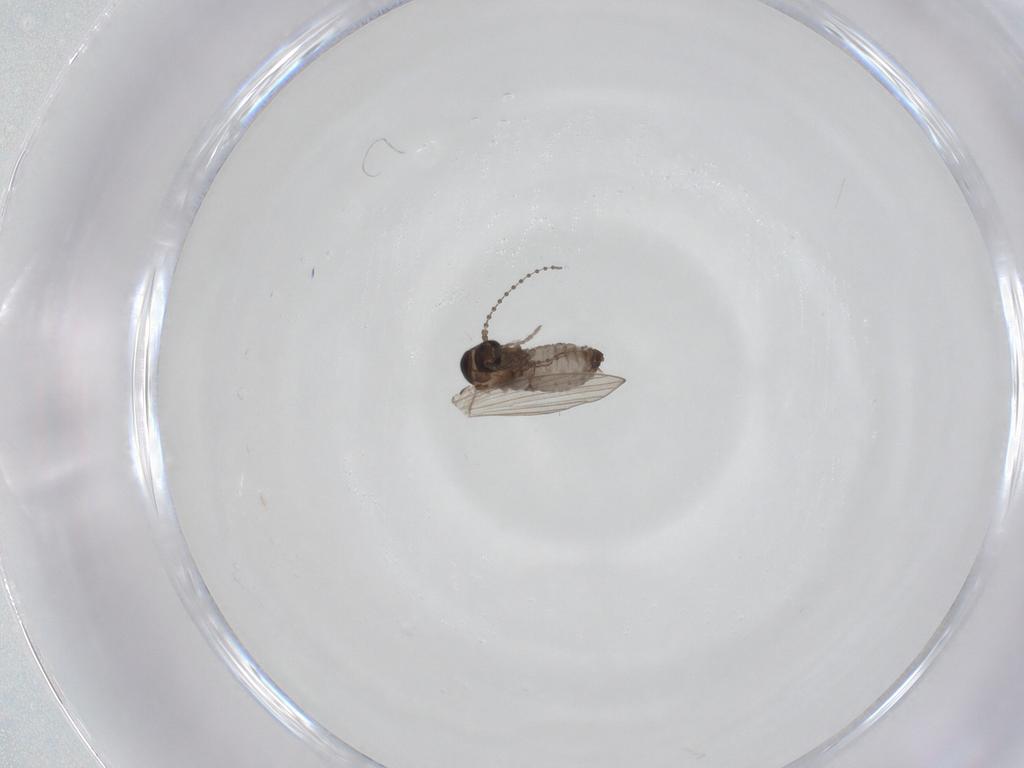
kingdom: Animalia
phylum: Arthropoda
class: Insecta
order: Diptera
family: Psychodidae
